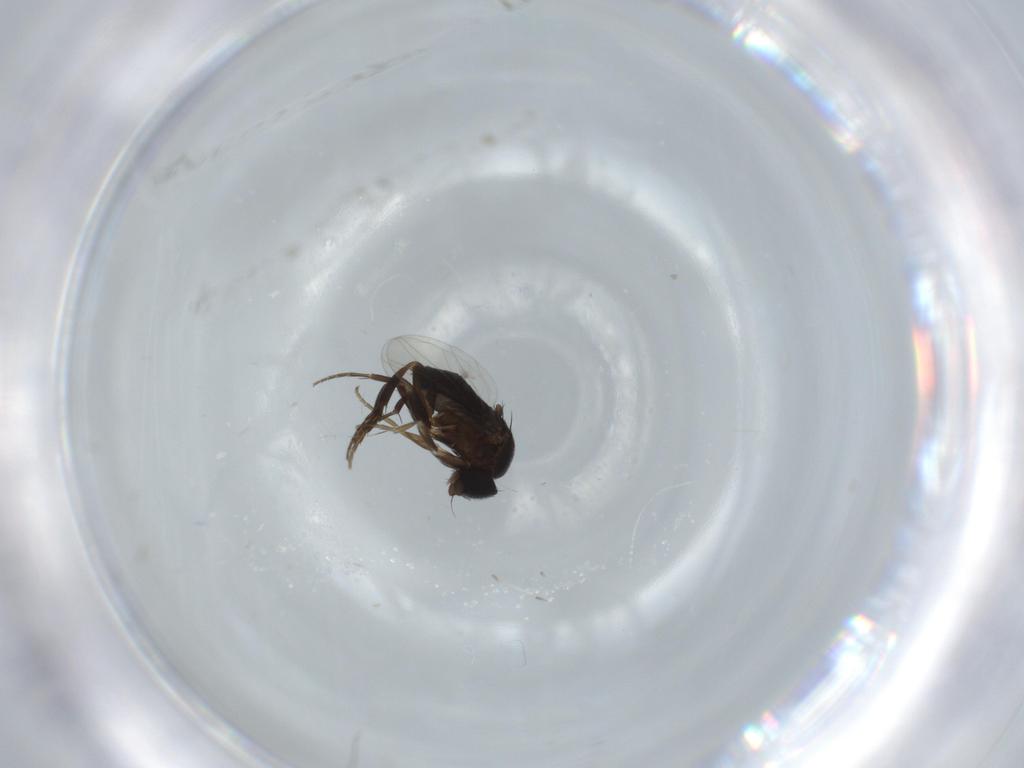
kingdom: Animalia
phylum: Arthropoda
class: Insecta
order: Diptera
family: Phoridae
